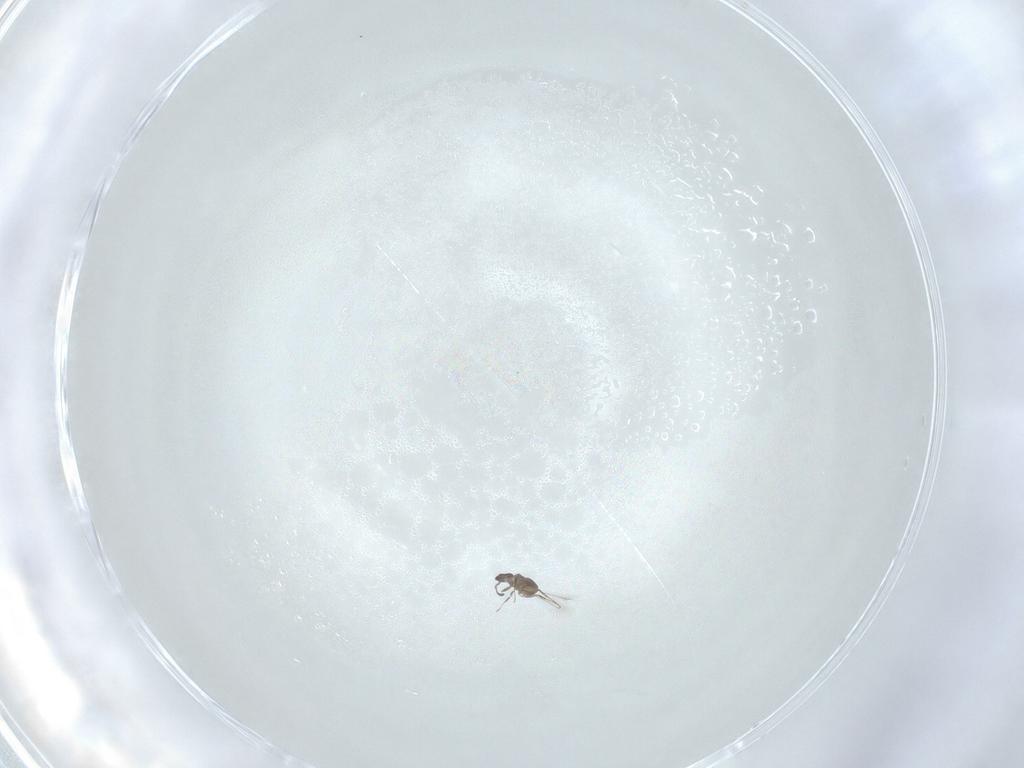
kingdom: Animalia
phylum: Arthropoda
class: Insecta
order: Hymenoptera
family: Mymaridae
